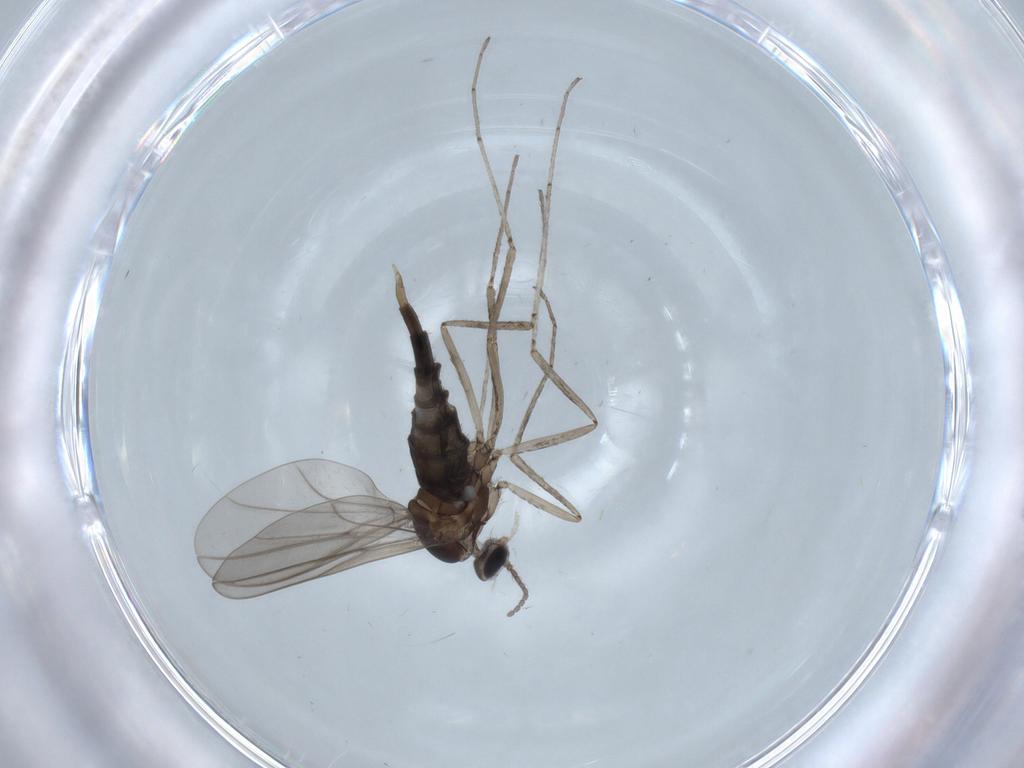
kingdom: Animalia
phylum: Arthropoda
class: Insecta
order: Diptera
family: Cecidomyiidae
